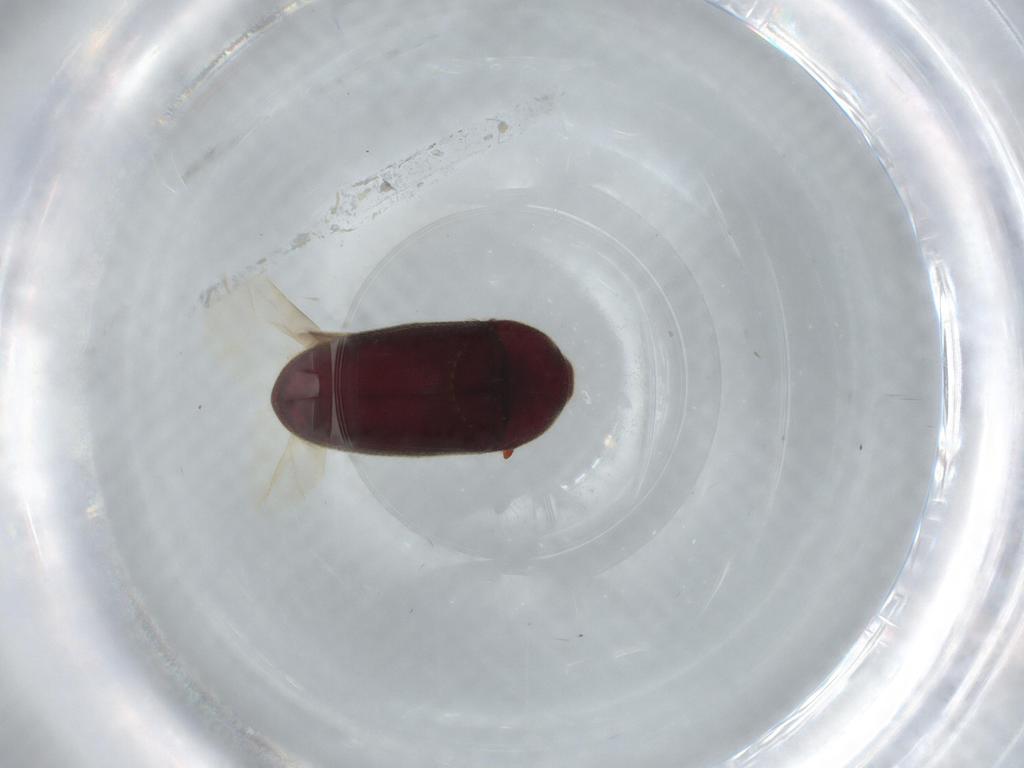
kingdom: Animalia
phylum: Arthropoda
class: Insecta
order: Coleoptera
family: Throscidae
